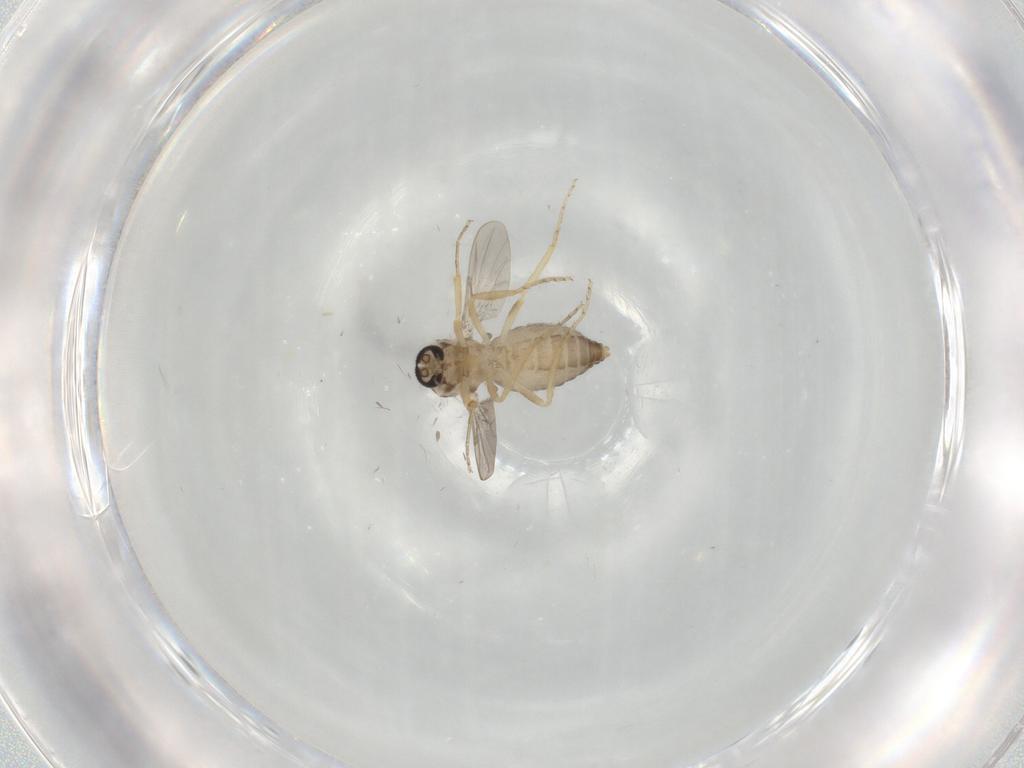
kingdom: Animalia
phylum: Arthropoda
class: Insecta
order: Diptera
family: Ceratopogonidae
